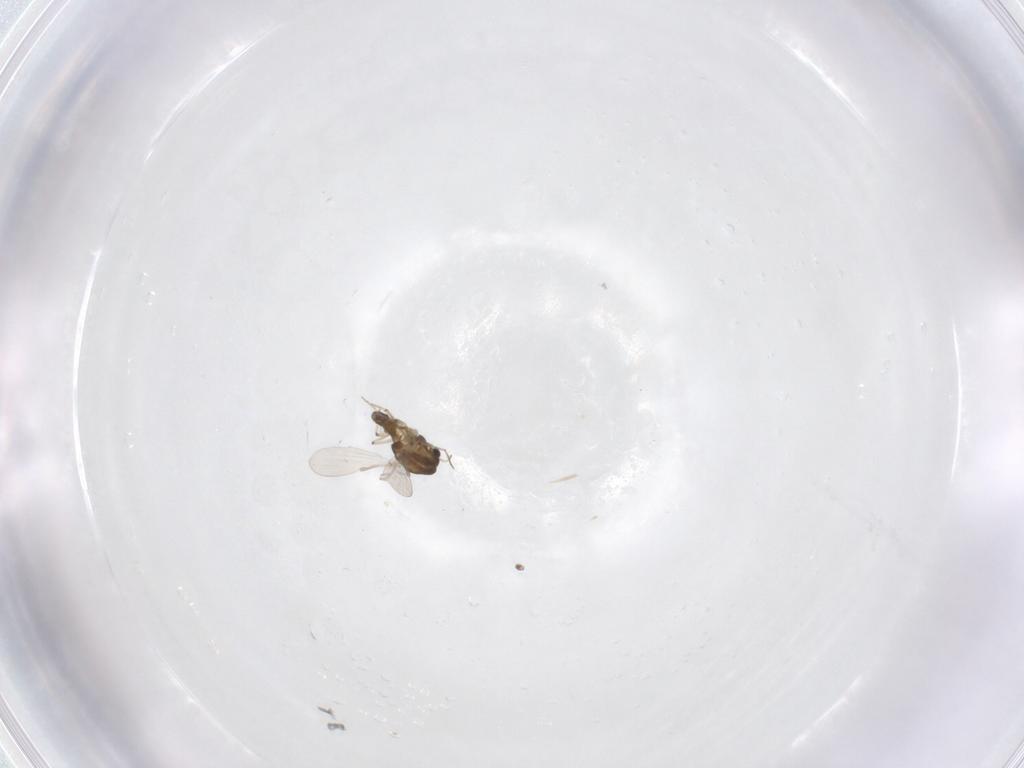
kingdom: Animalia
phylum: Arthropoda
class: Insecta
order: Diptera
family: Chironomidae
